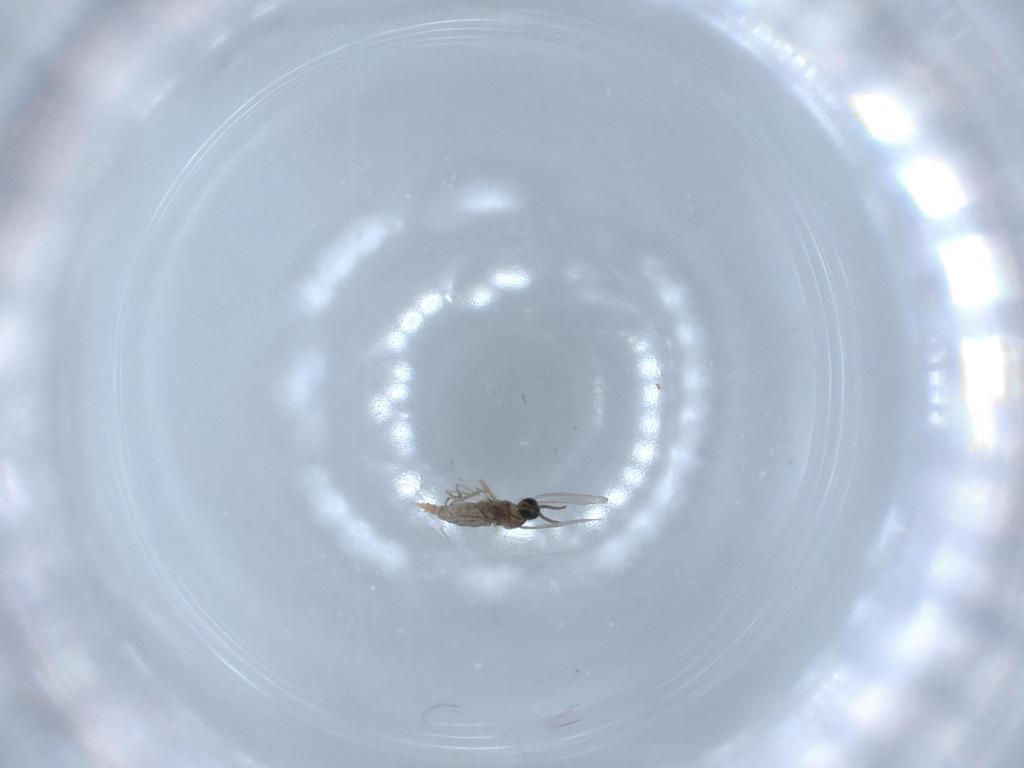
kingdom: Animalia
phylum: Arthropoda
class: Insecta
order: Diptera
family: Cecidomyiidae
